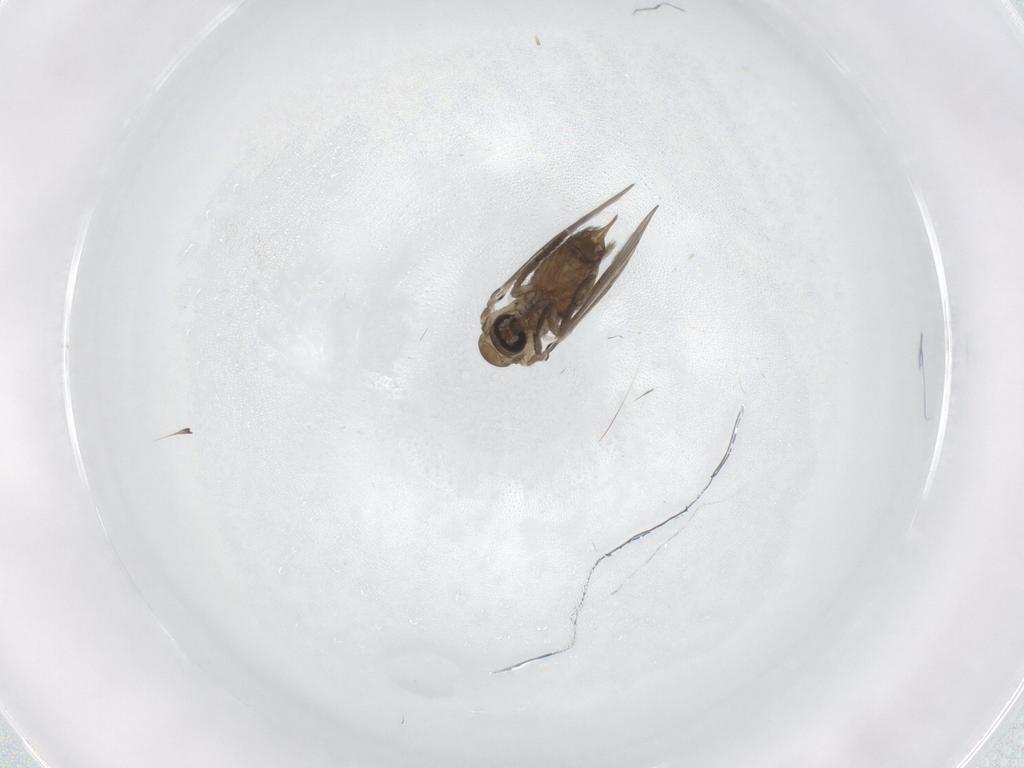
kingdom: Animalia
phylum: Arthropoda
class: Insecta
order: Diptera
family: Psychodidae
